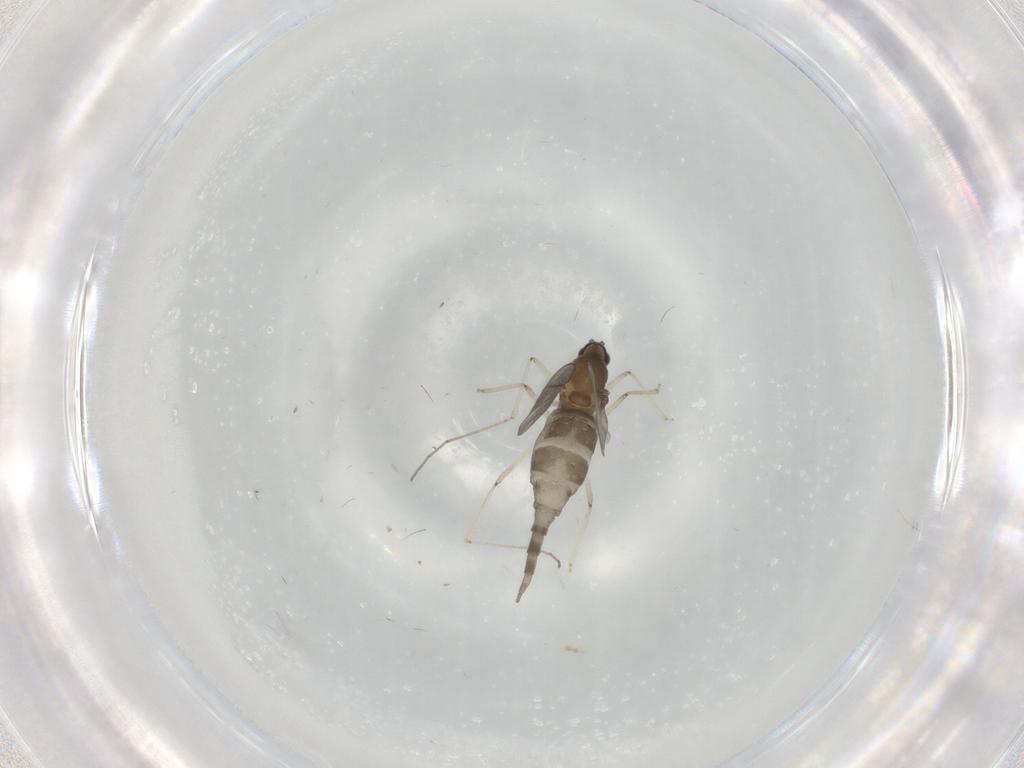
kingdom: Animalia
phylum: Arthropoda
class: Insecta
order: Diptera
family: Cecidomyiidae
